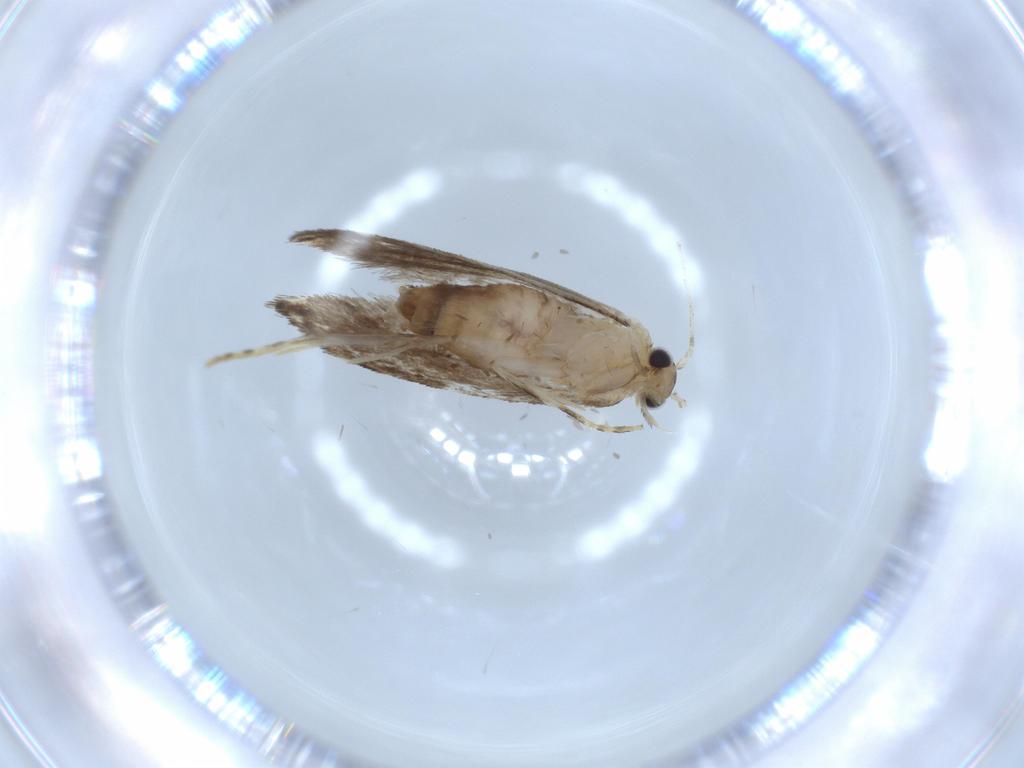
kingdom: Animalia
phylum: Arthropoda
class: Insecta
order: Lepidoptera
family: Tineidae
